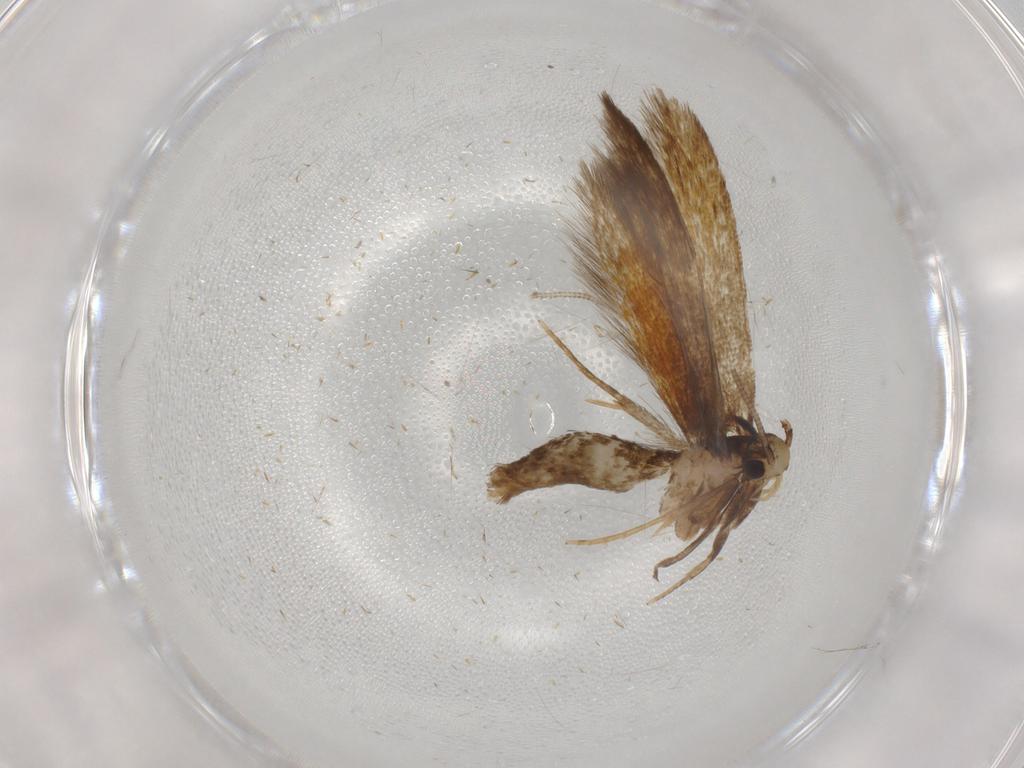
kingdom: Animalia
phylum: Arthropoda
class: Insecta
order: Lepidoptera
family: Tineidae
